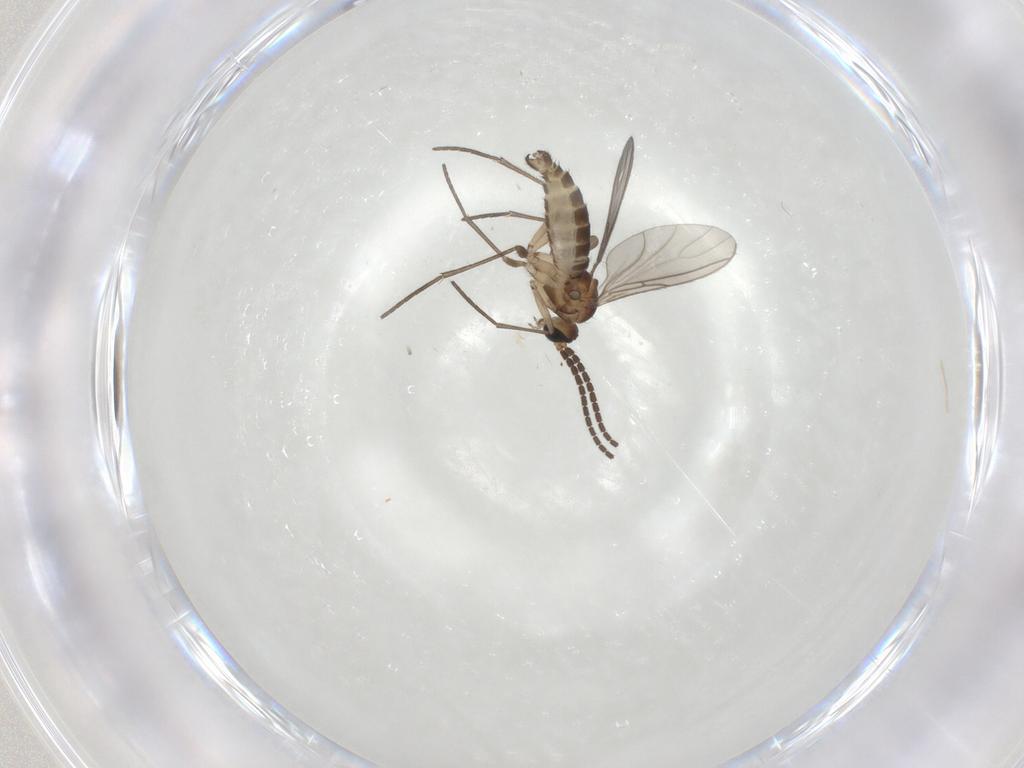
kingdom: Animalia
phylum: Arthropoda
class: Insecta
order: Diptera
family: Sciaridae
